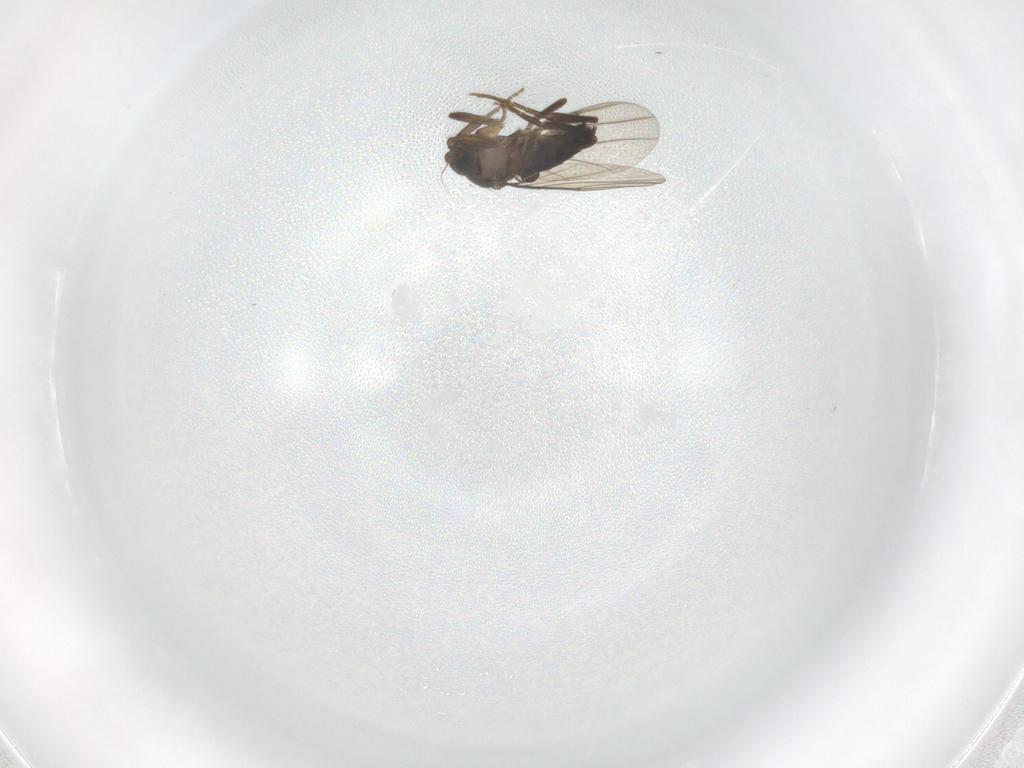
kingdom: Animalia
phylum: Arthropoda
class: Insecta
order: Diptera
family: Phoridae
